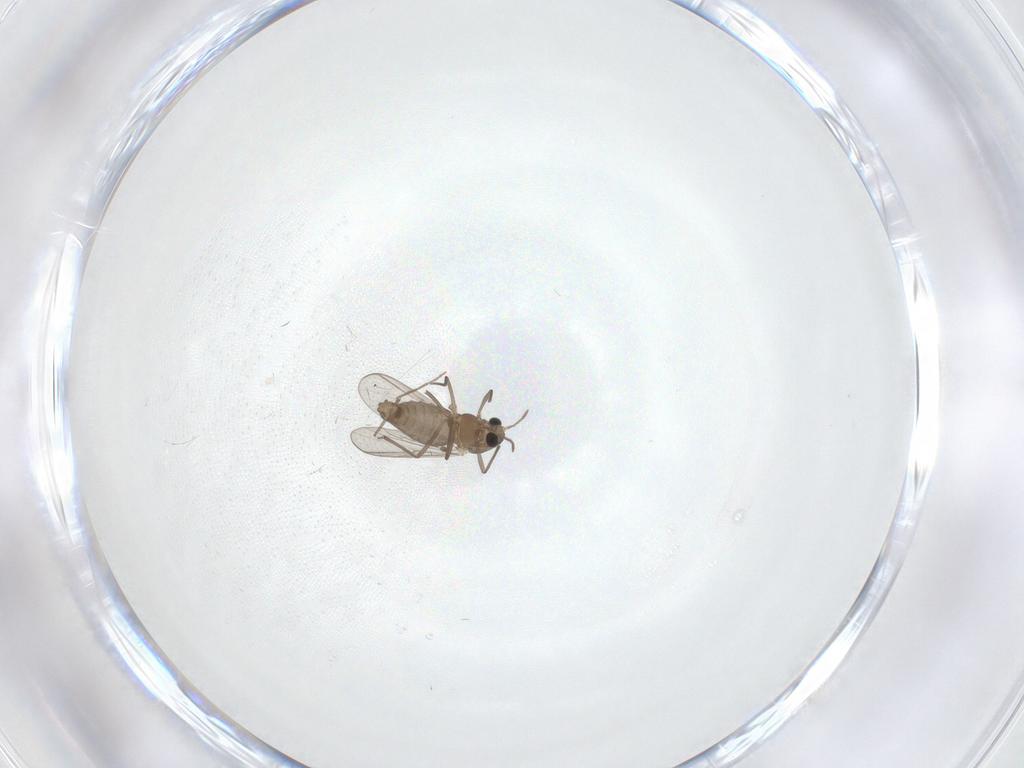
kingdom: Animalia
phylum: Arthropoda
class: Insecta
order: Diptera
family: Chironomidae
